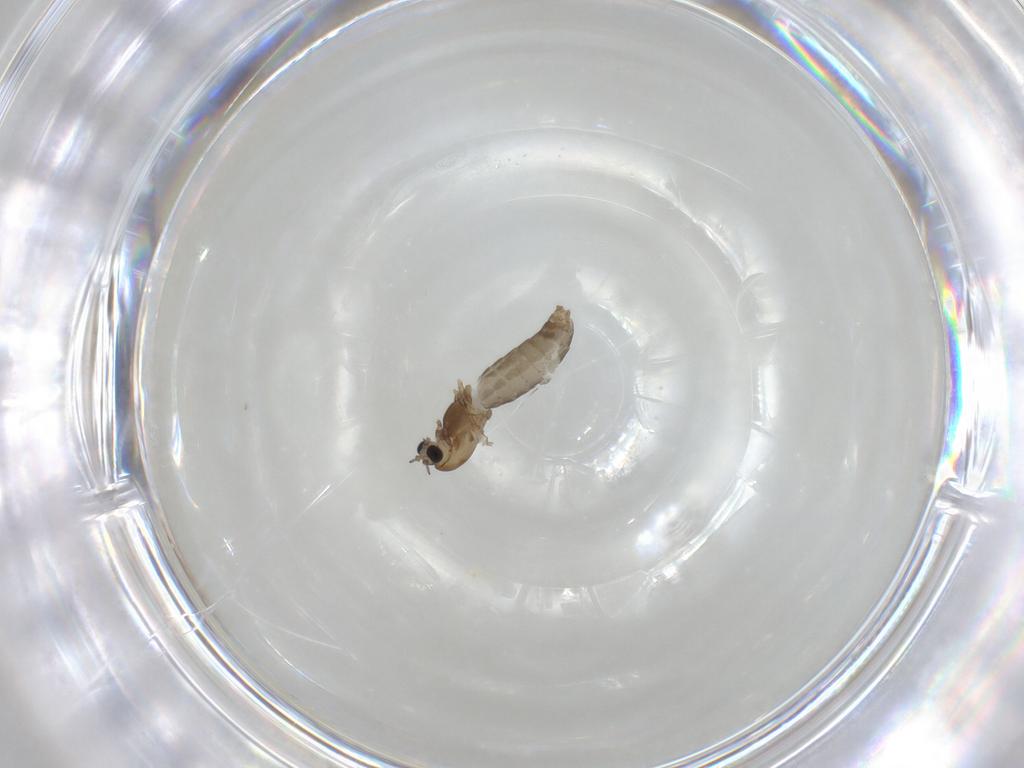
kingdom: Animalia
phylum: Arthropoda
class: Insecta
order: Diptera
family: Chironomidae
